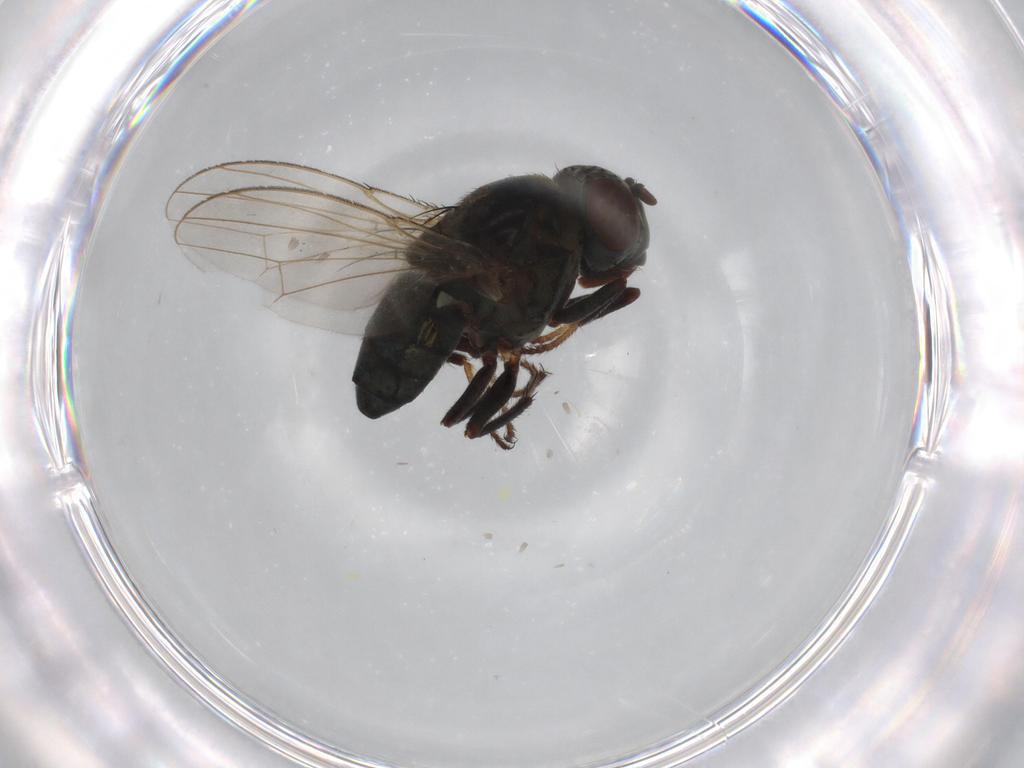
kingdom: Animalia
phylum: Arthropoda
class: Insecta
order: Diptera
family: Ephydridae
